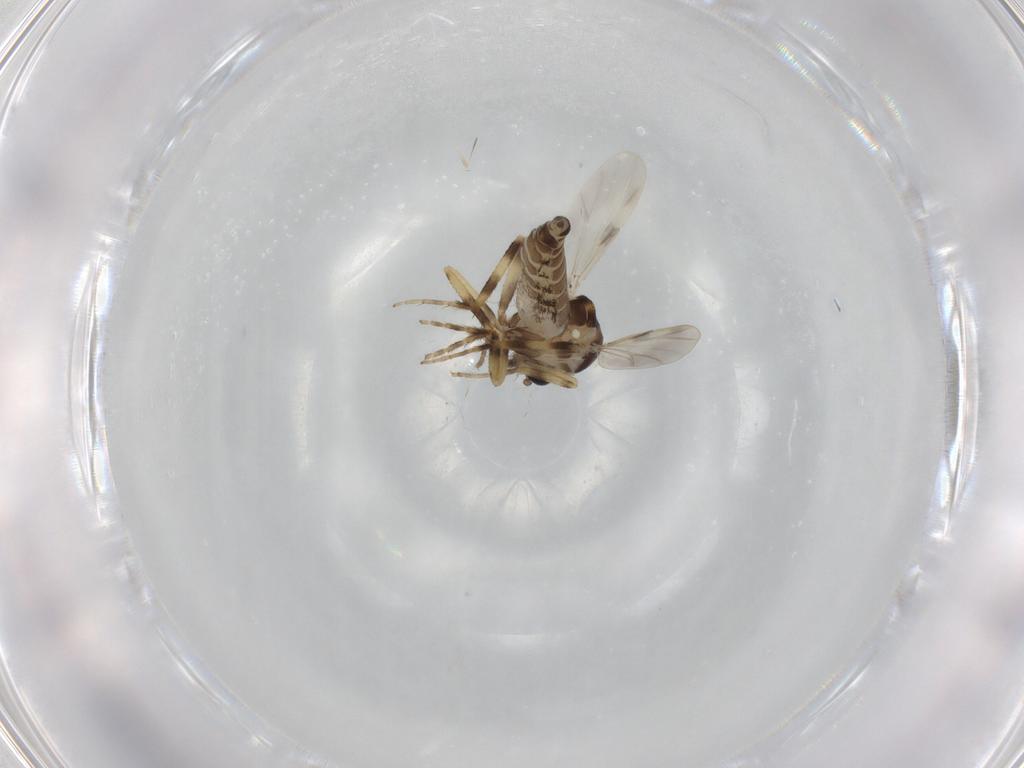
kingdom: Animalia
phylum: Arthropoda
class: Insecta
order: Diptera
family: Ceratopogonidae
